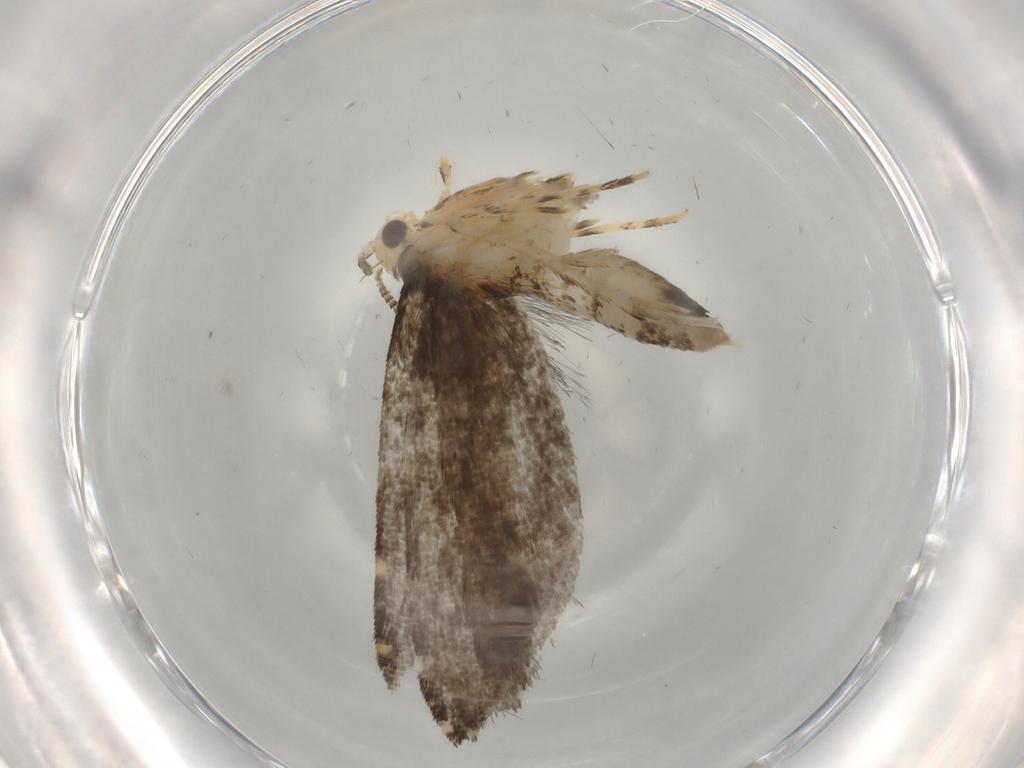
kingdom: Animalia
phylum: Arthropoda
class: Insecta
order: Lepidoptera
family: Tineidae
